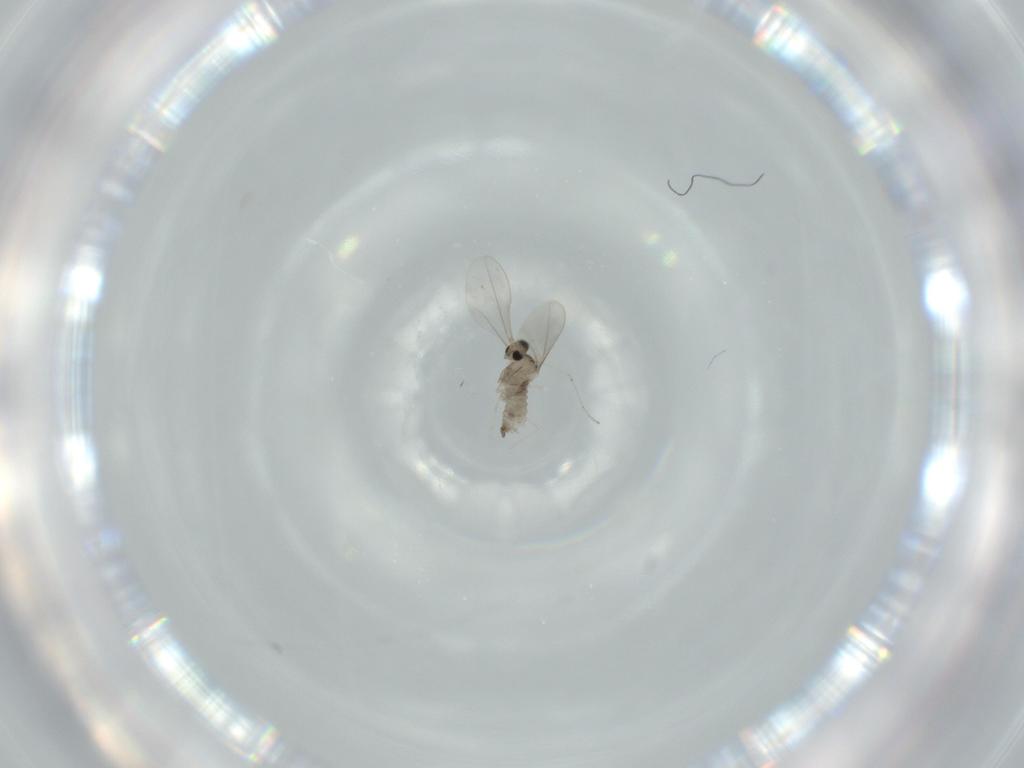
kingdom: Animalia
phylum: Arthropoda
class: Insecta
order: Diptera
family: Cecidomyiidae
